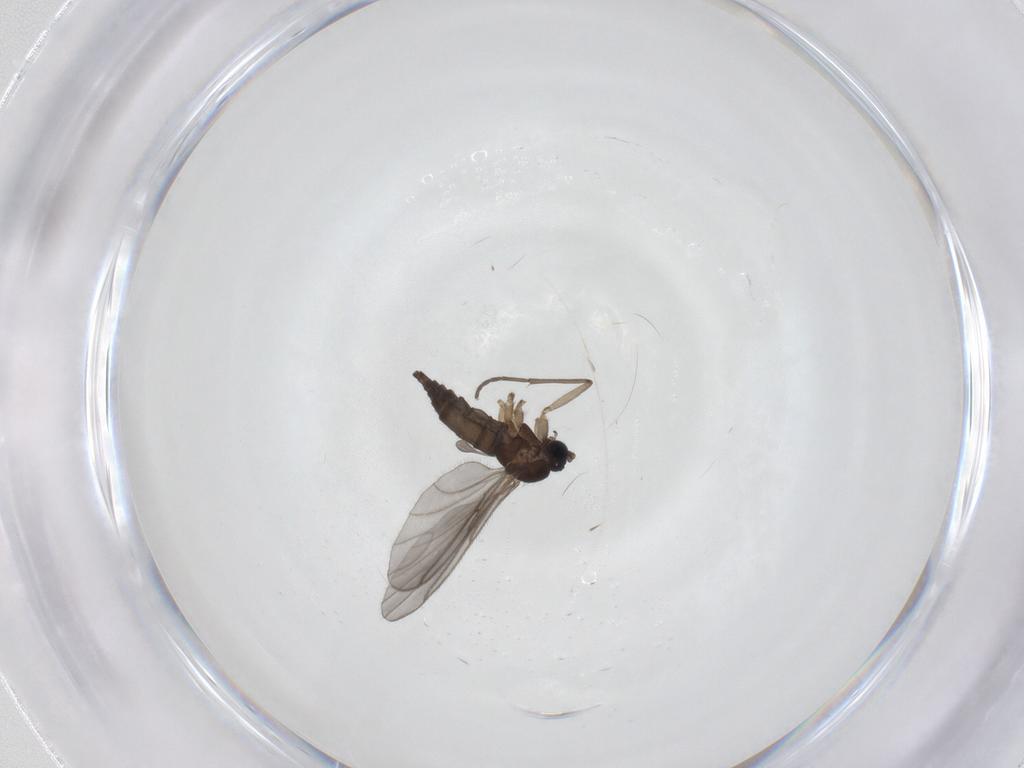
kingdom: Animalia
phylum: Arthropoda
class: Insecta
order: Diptera
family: Sciaridae
